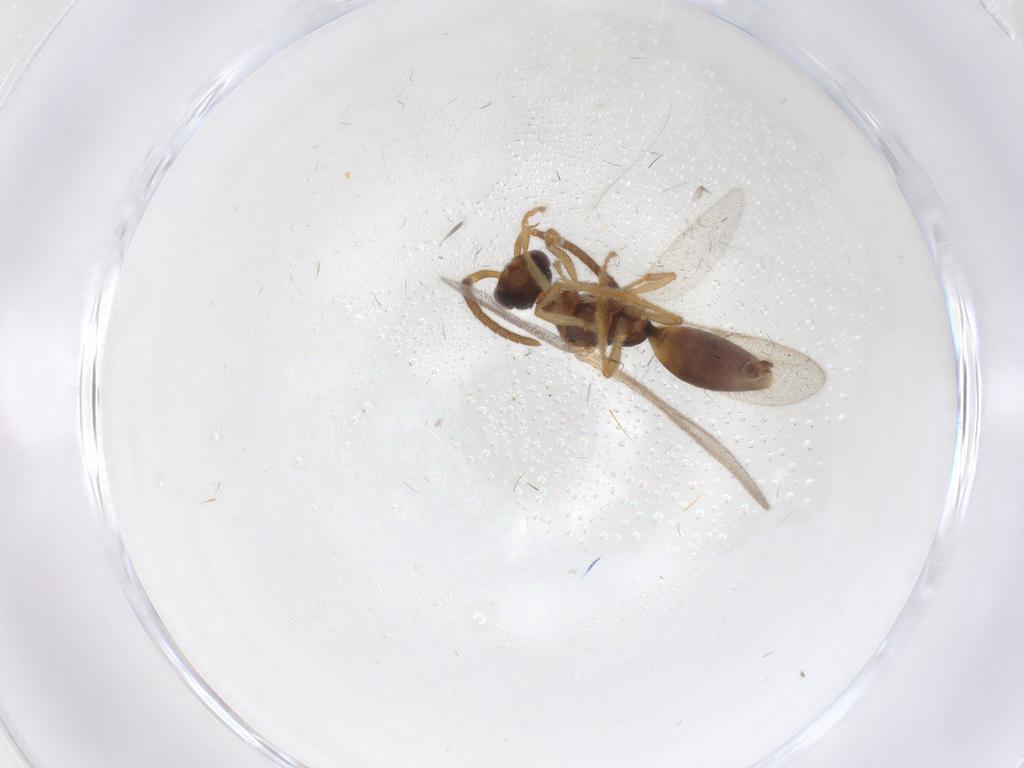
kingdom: Animalia
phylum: Arthropoda
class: Insecta
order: Hymenoptera
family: Bethylidae
